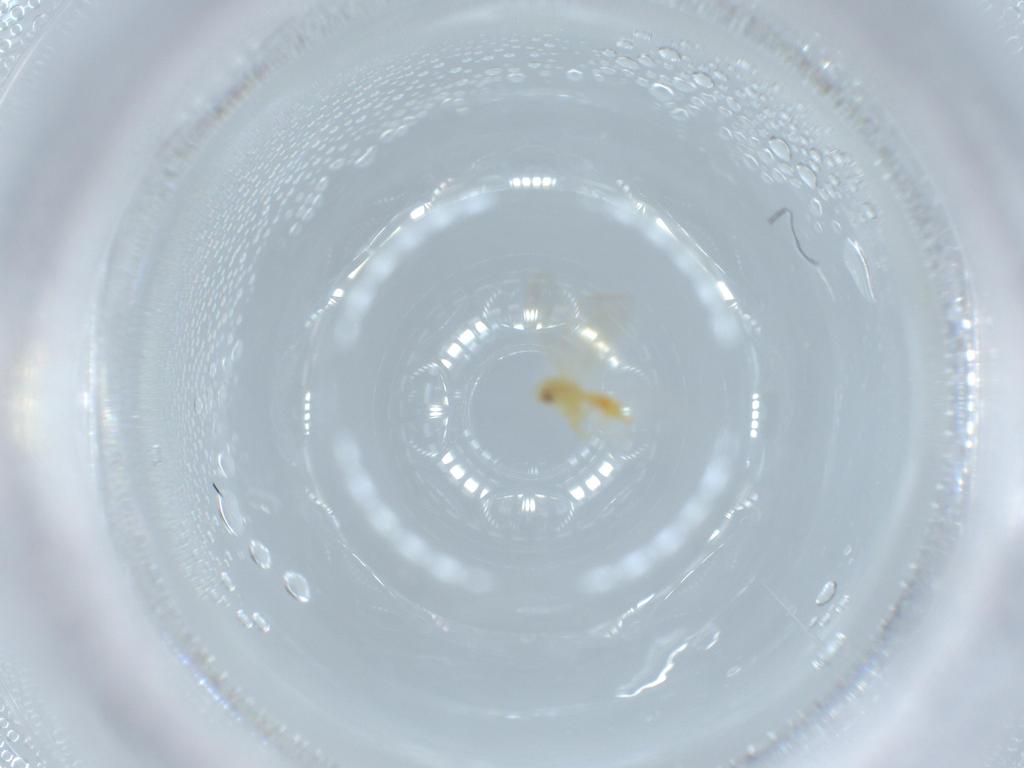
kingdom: Animalia
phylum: Arthropoda
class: Insecta
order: Hemiptera
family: Aleyrodidae
